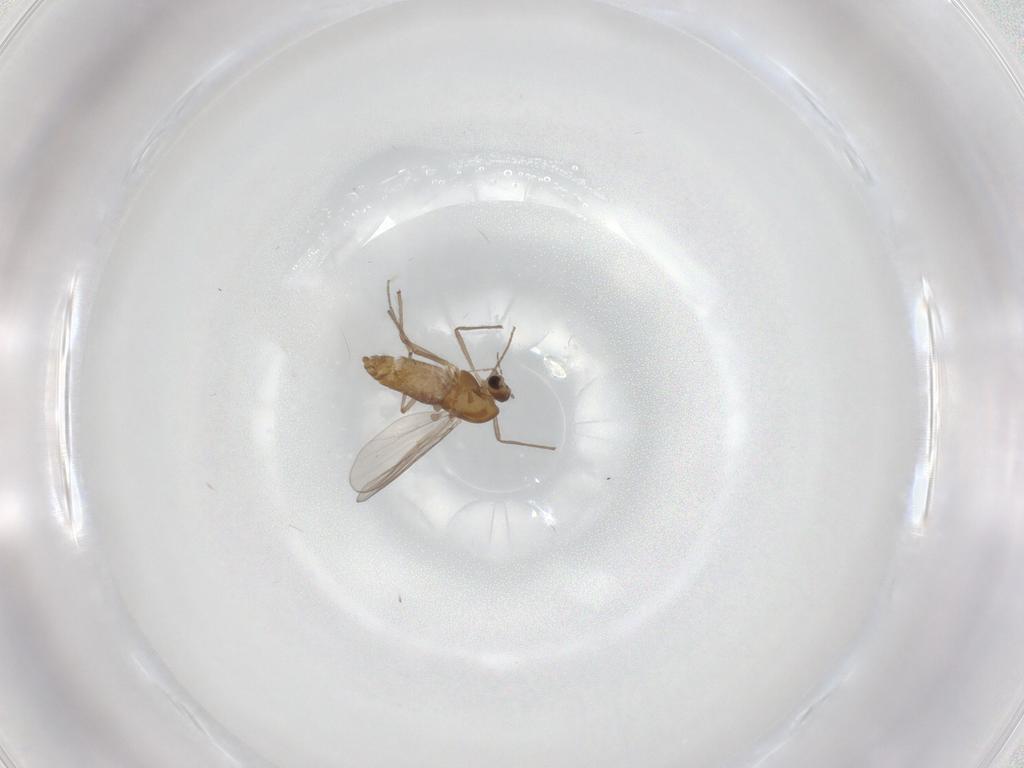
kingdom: Animalia
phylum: Arthropoda
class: Insecta
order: Diptera
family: Chironomidae
